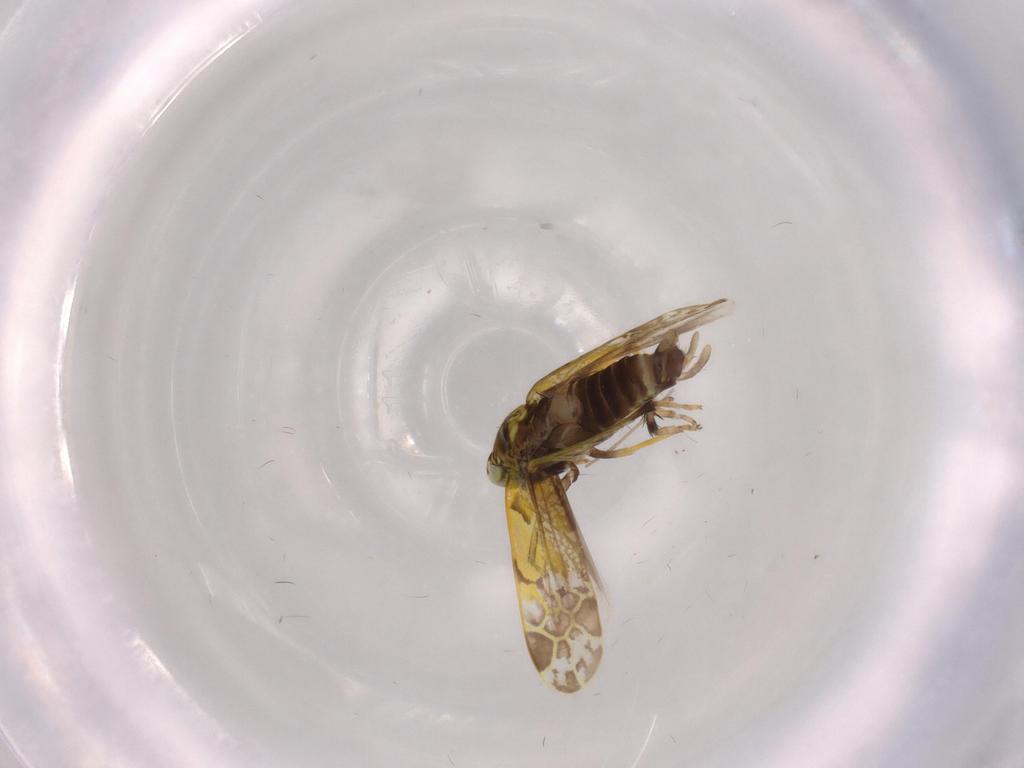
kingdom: Animalia
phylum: Arthropoda
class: Insecta
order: Hemiptera
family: Cicadellidae
